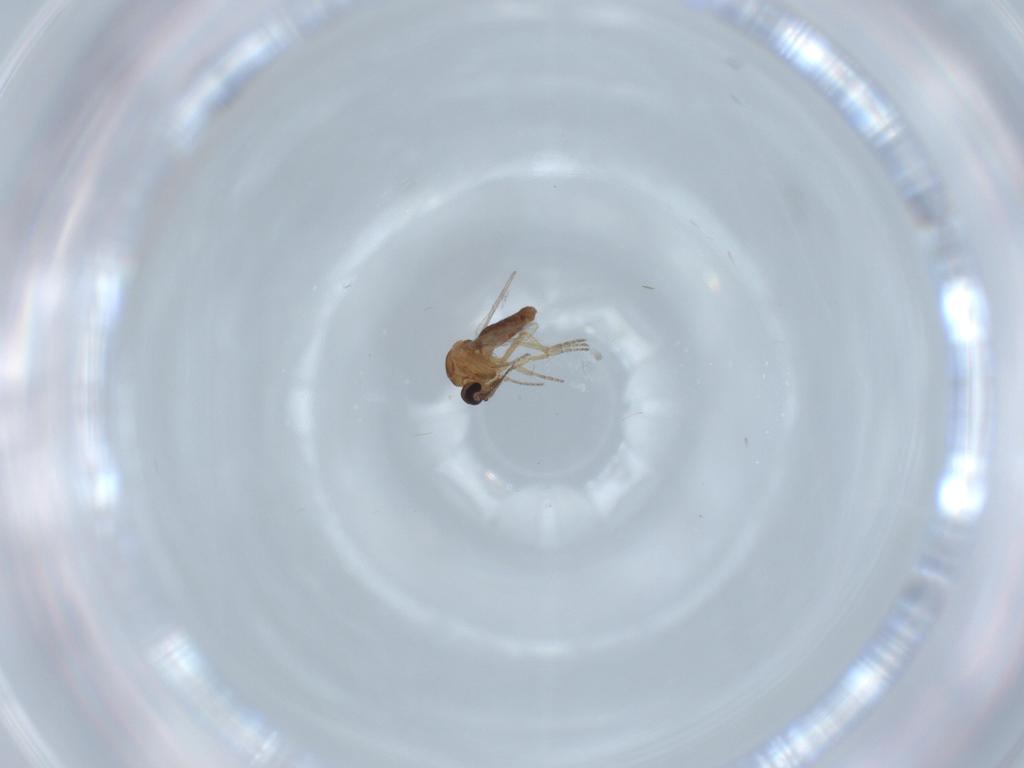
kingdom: Animalia
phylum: Arthropoda
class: Insecta
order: Diptera
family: Ceratopogonidae
